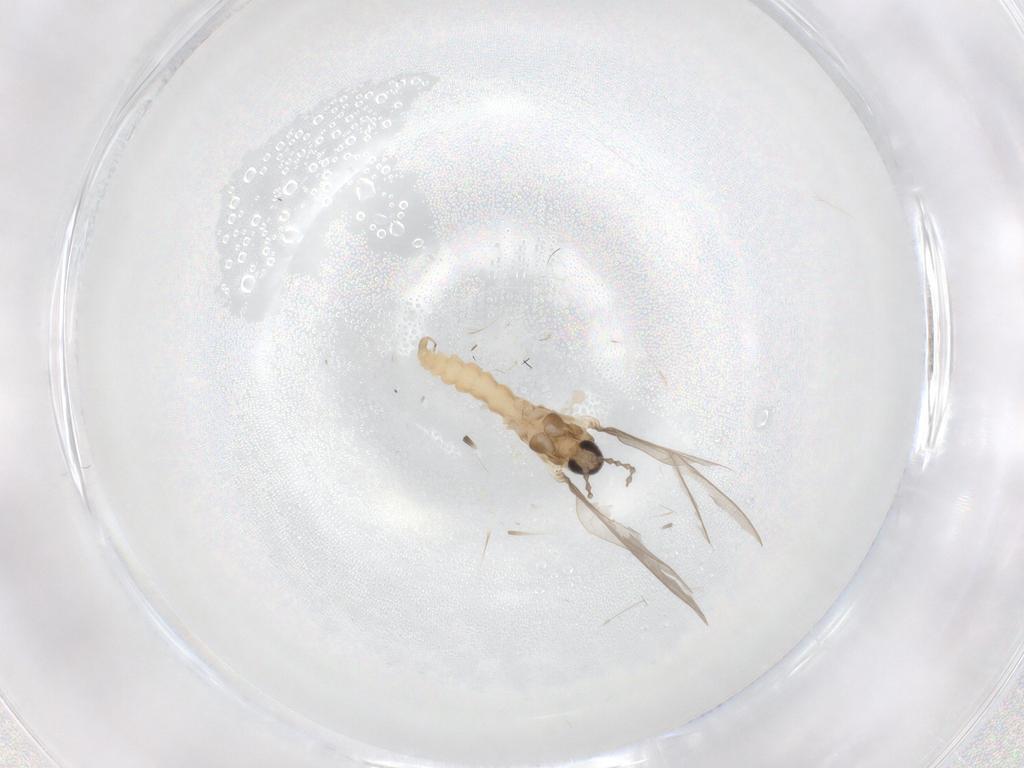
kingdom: Animalia
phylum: Arthropoda
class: Insecta
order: Diptera
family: Cecidomyiidae
